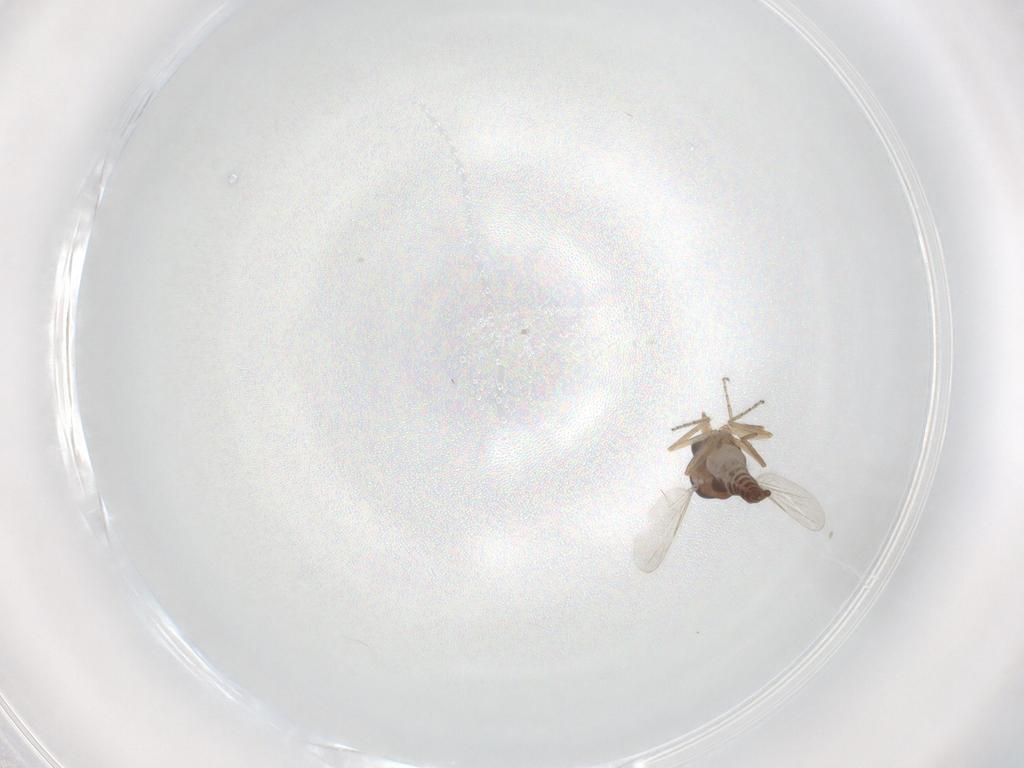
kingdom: Animalia
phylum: Arthropoda
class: Insecta
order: Diptera
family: Ceratopogonidae
